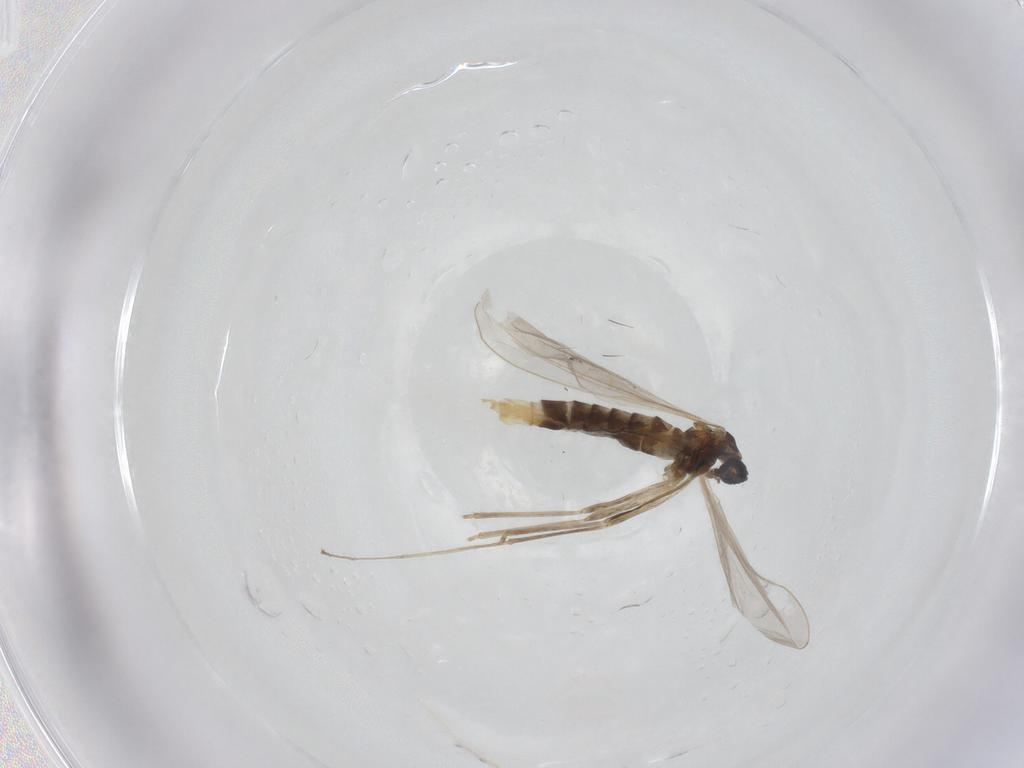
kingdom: Animalia
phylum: Arthropoda
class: Insecta
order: Diptera
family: Cecidomyiidae
